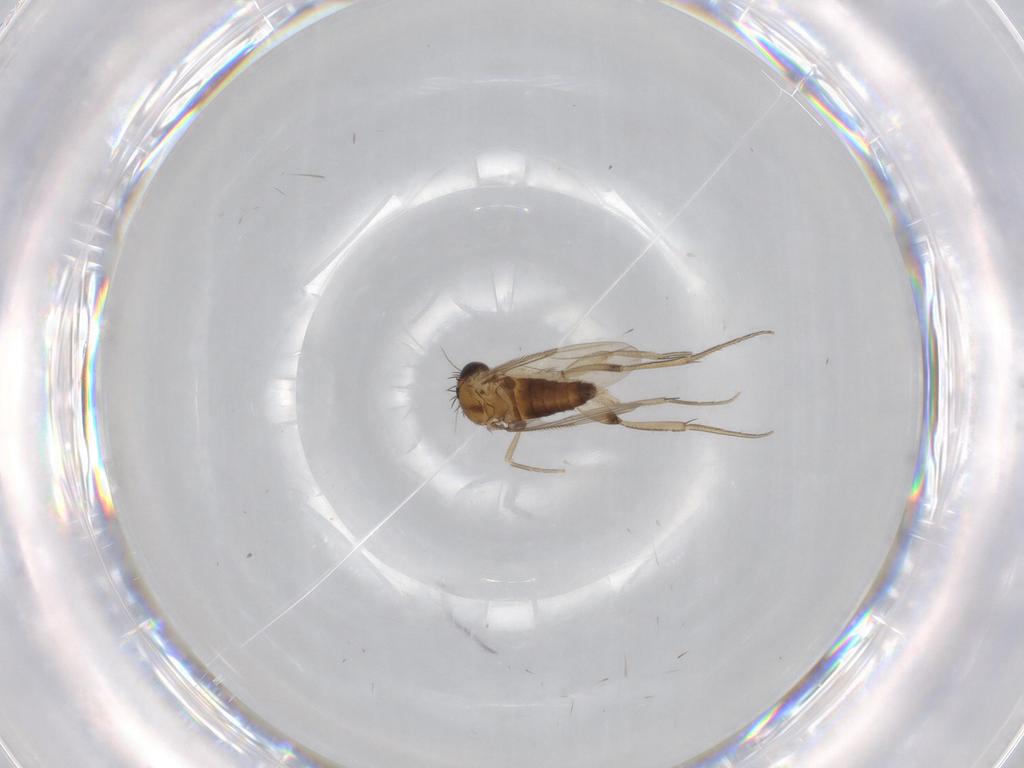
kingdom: Animalia
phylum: Arthropoda
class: Insecta
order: Diptera
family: Phoridae
